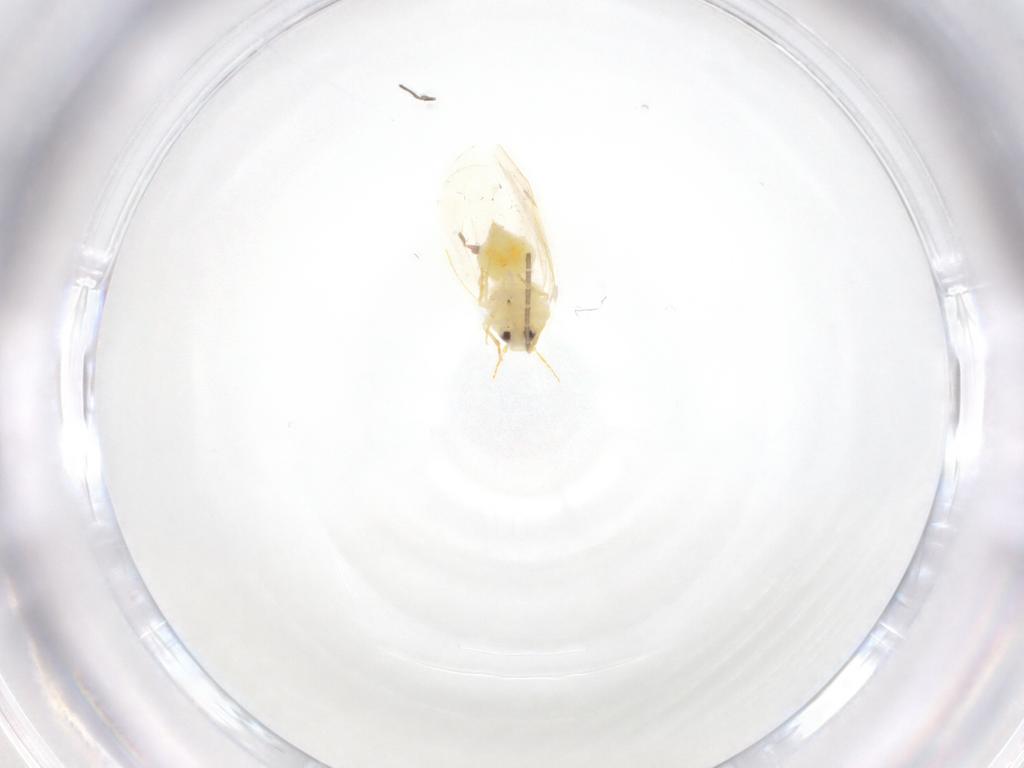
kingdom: Animalia
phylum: Arthropoda
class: Insecta
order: Hemiptera
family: Aleyrodidae
